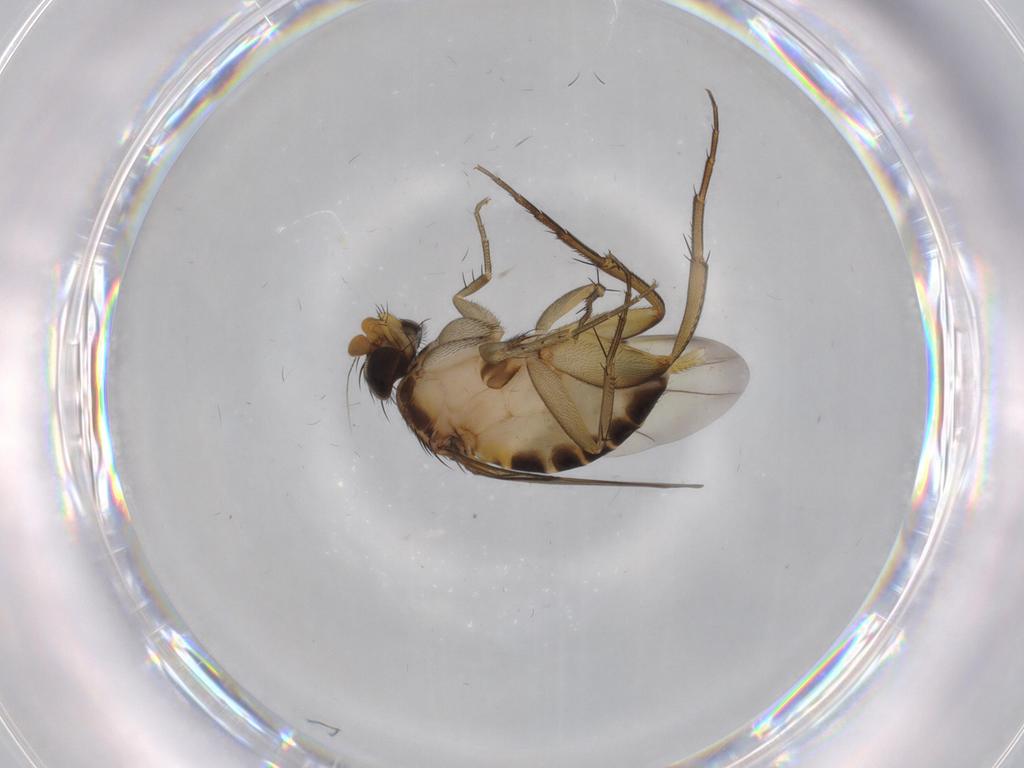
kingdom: Animalia
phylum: Arthropoda
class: Insecta
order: Diptera
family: Phoridae
